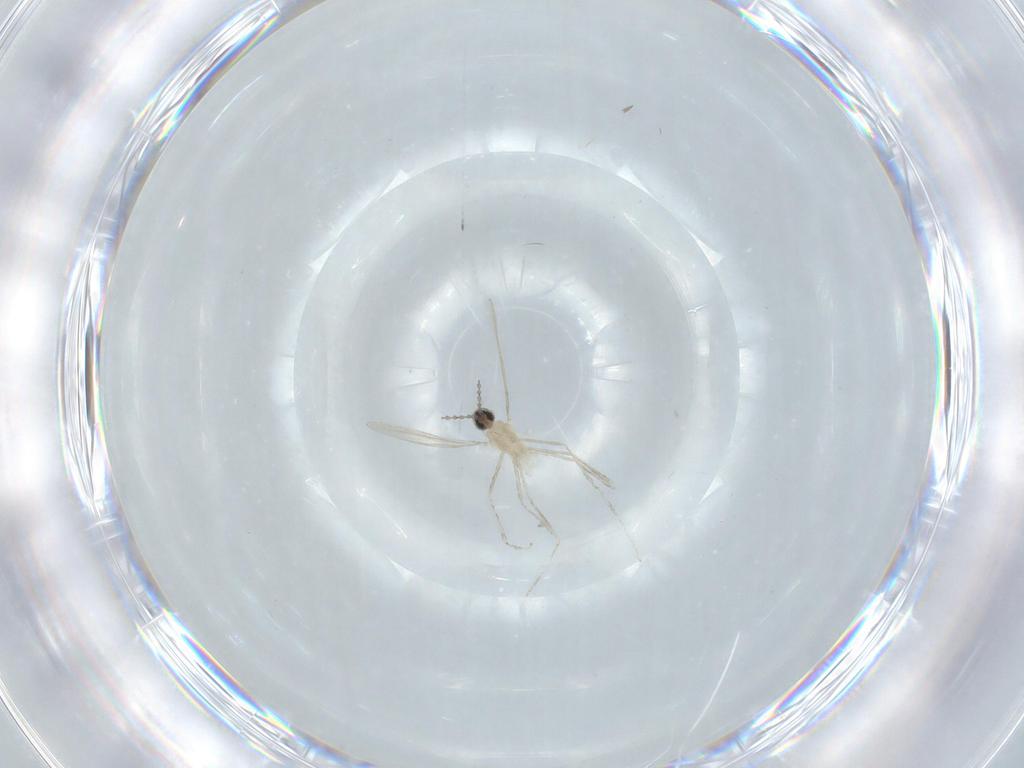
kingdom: Animalia
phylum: Arthropoda
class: Insecta
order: Diptera
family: Cecidomyiidae
